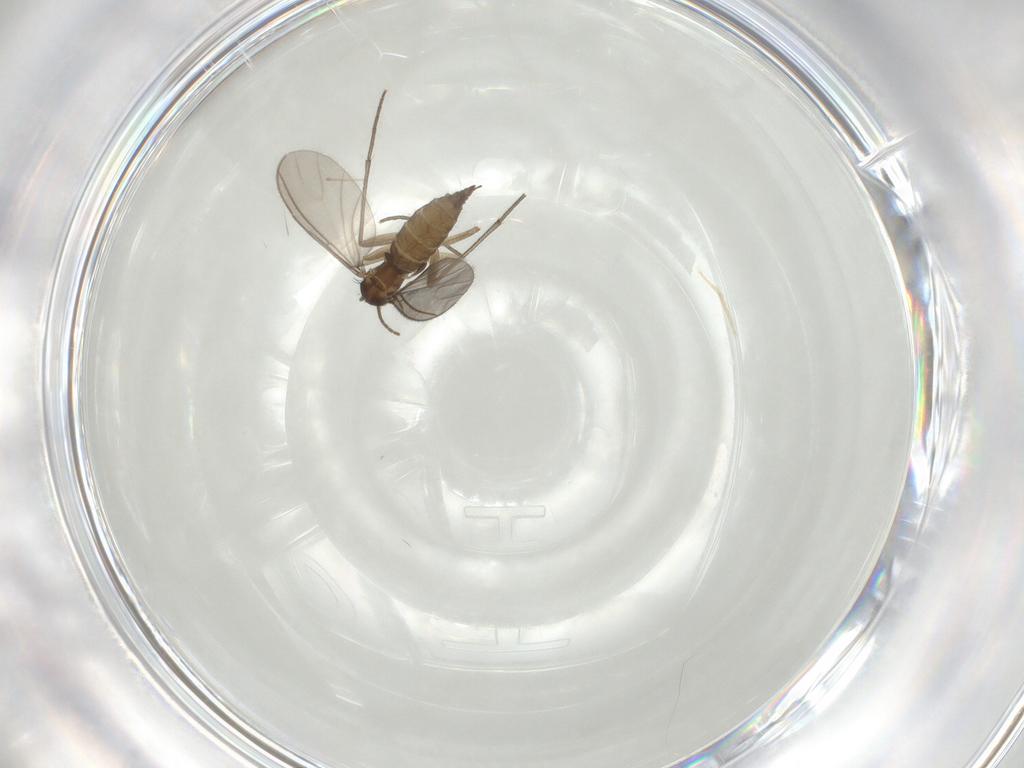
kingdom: Animalia
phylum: Arthropoda
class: Insecta
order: Diptera
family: Sciaridae
